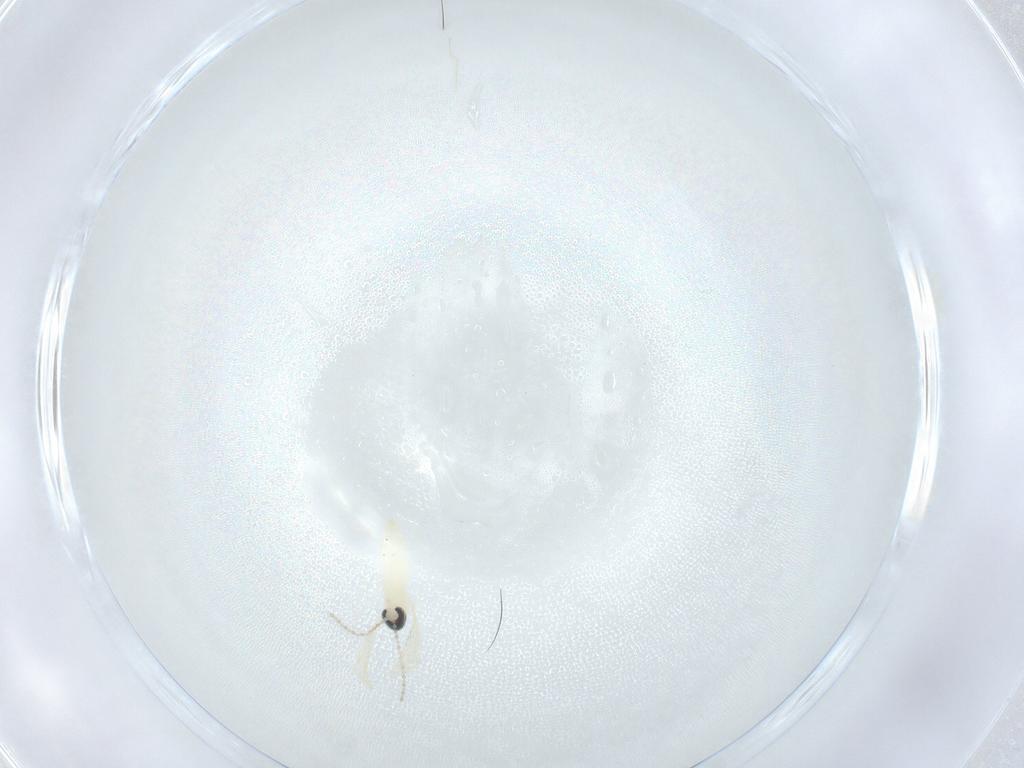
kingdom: Animalia
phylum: Arthropoda
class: Insecta
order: Diptera
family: Cecidomyiidae
